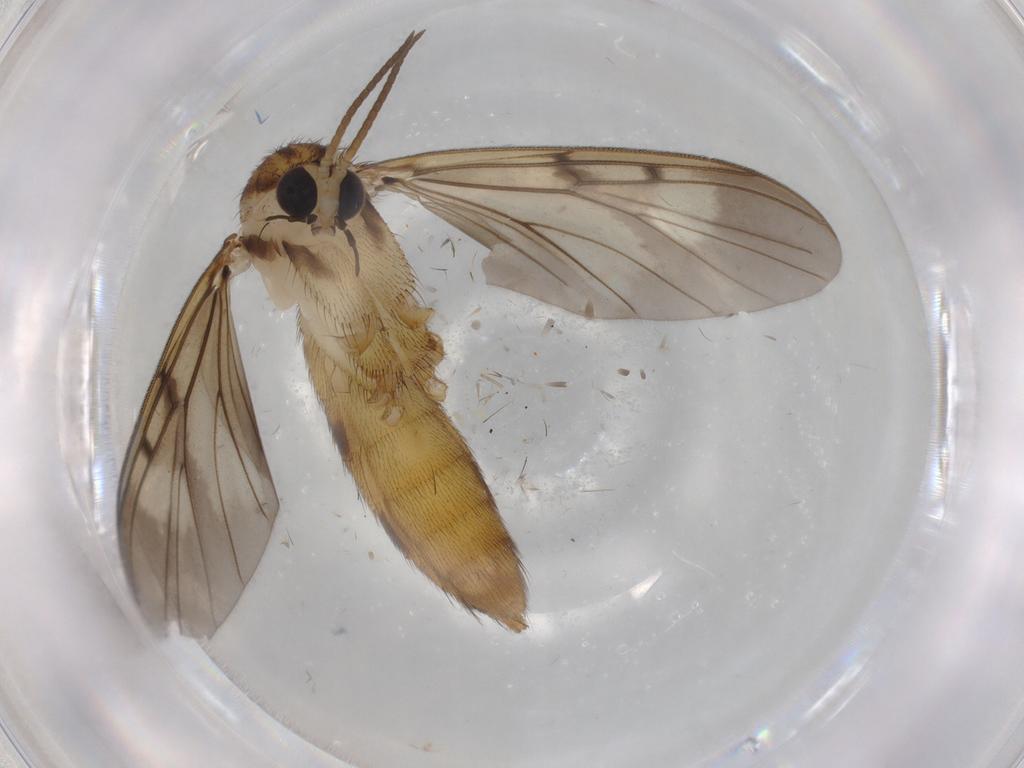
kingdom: Animalia
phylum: Arthropoda
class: Insecta
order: Diptera
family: Mycetophilidae
